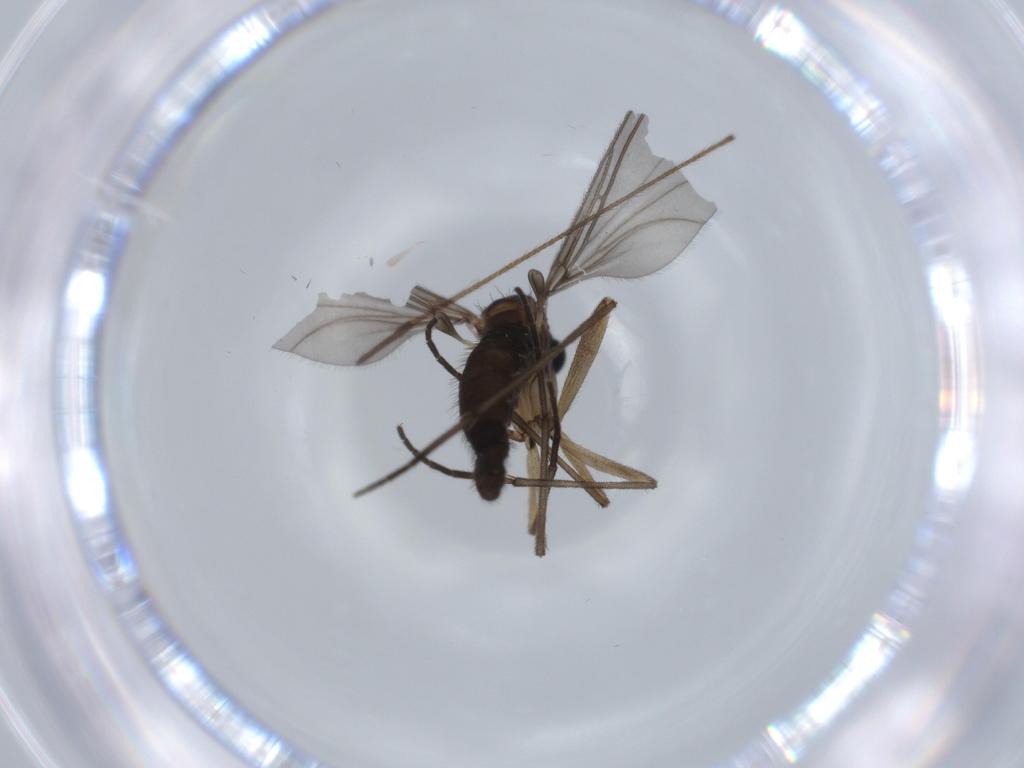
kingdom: Animalia
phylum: Arthropoda
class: Insecta
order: Diptera
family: Sciaridae
